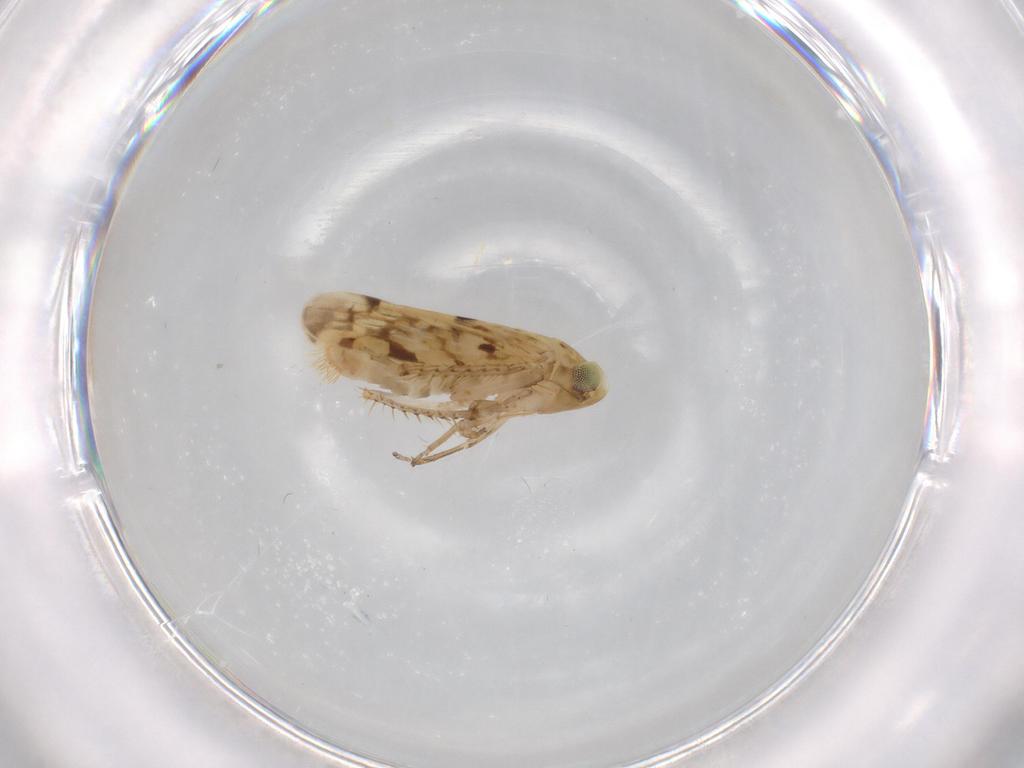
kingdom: Animalia
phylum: Arthropoda
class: Insecta
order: Hemiptera
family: Cicadellidae
